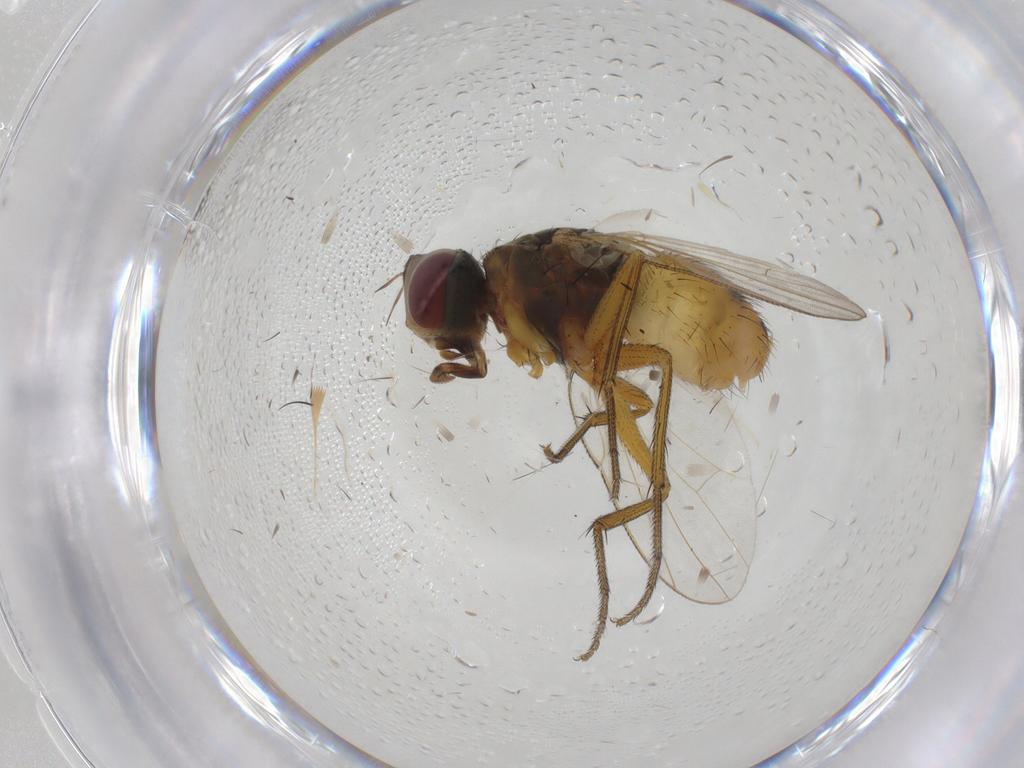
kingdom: Animalia
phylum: Arthropoda
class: Insecta
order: Diptera
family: Muscidae
